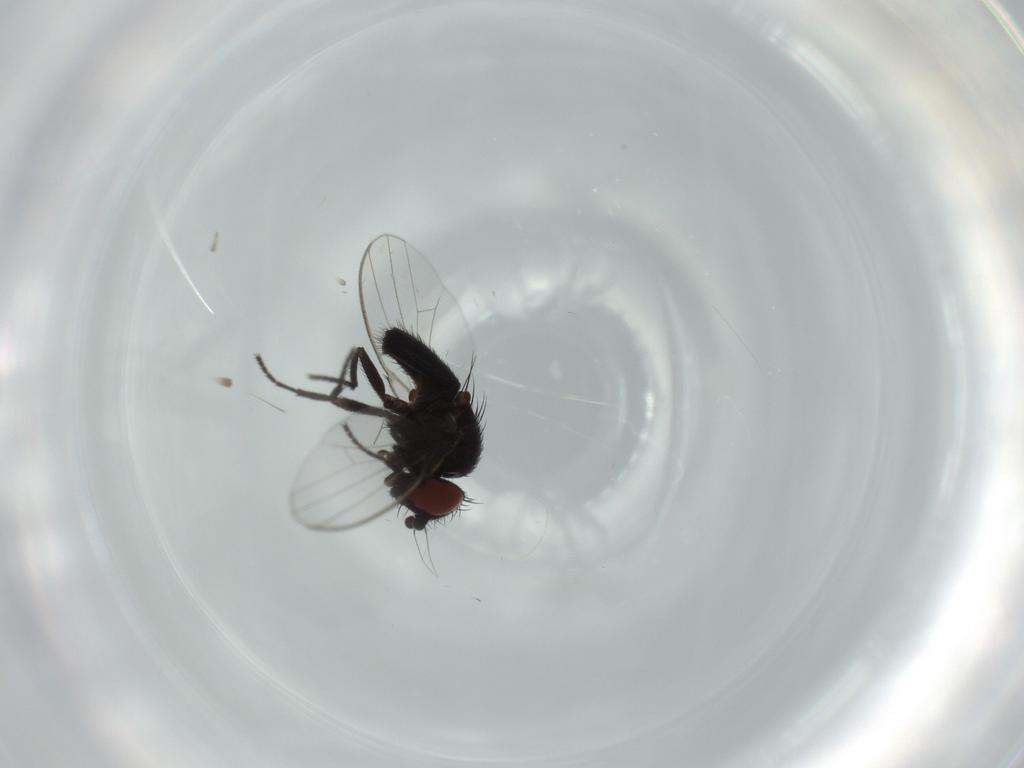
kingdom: Animalia
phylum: Arthropoda
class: Insecta
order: Diptera
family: Milichiidae
